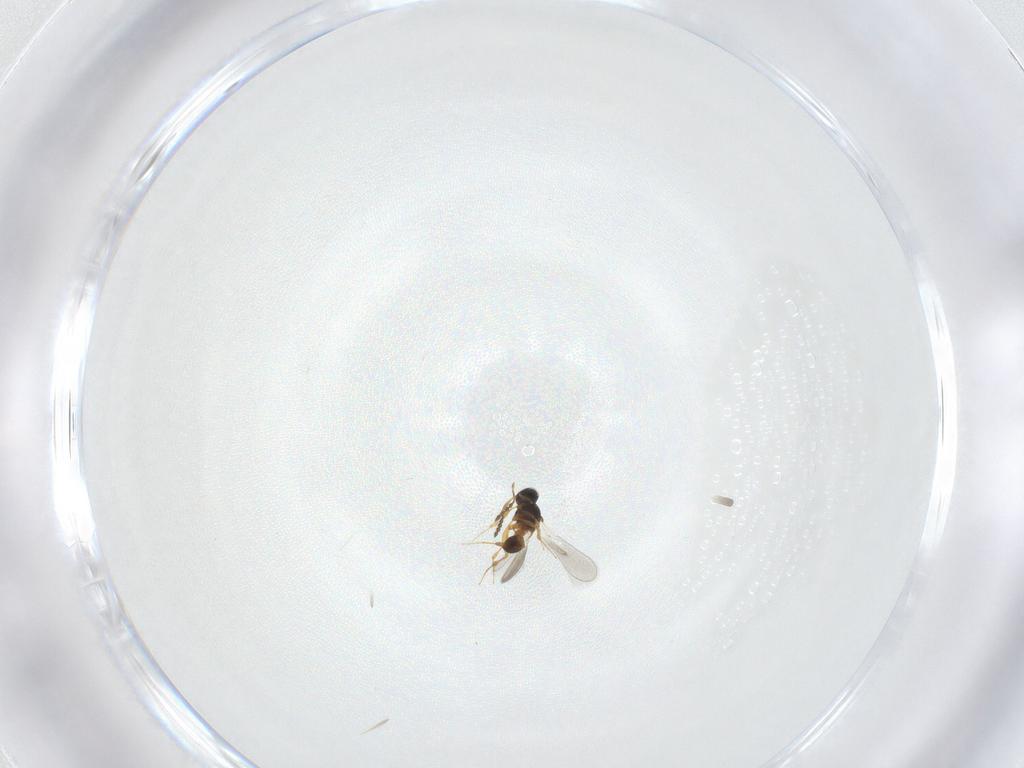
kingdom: Animalia
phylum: Arthropoda
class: Insecta
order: Hymenoptera
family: Platygastridae
